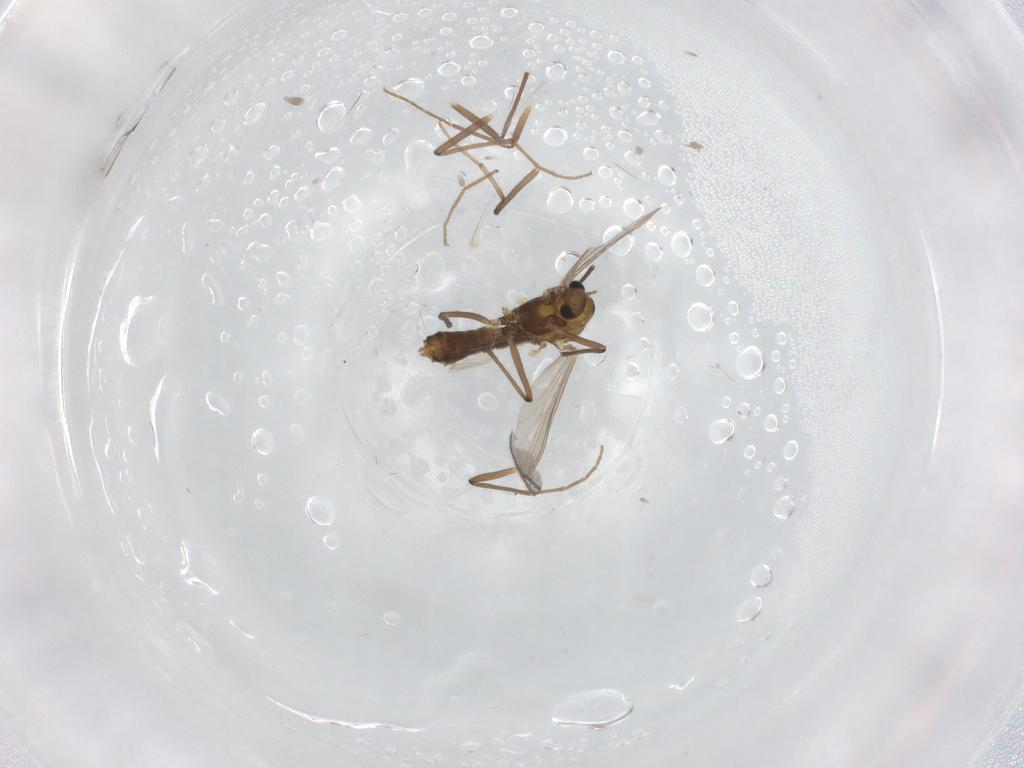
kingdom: Animalia
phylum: Arthropoda
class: Insecta
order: Diptera
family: Chironomidae
